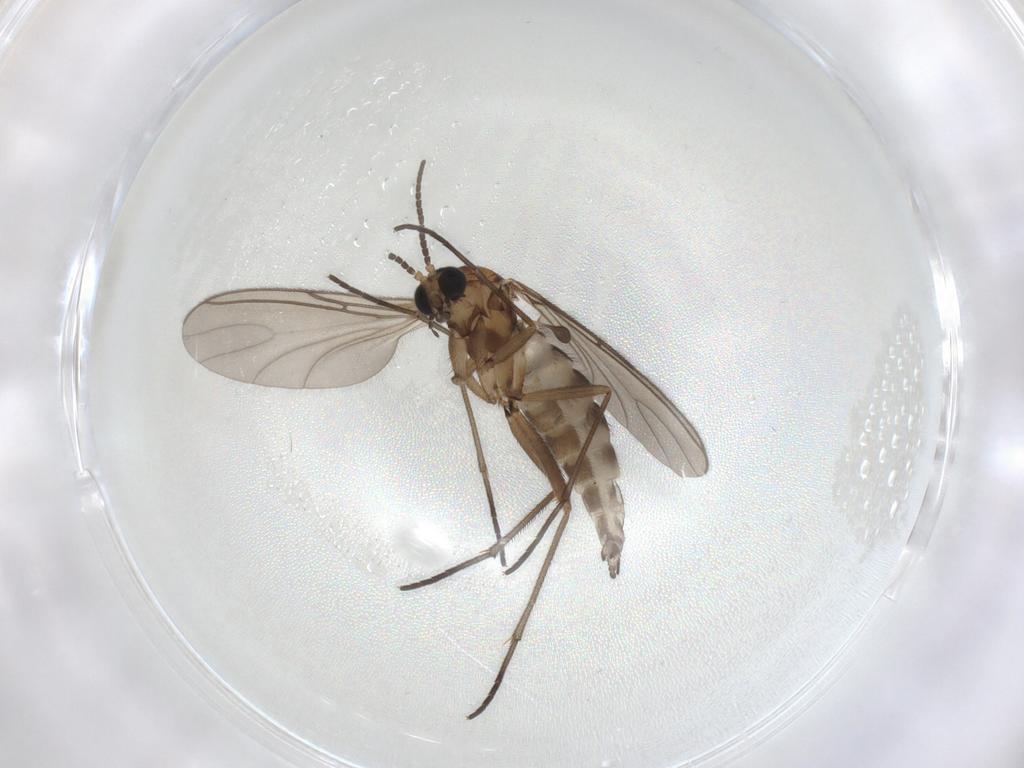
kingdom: Animalia
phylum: Arthropoda
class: Insecta
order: Diptera
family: Sciaridae
